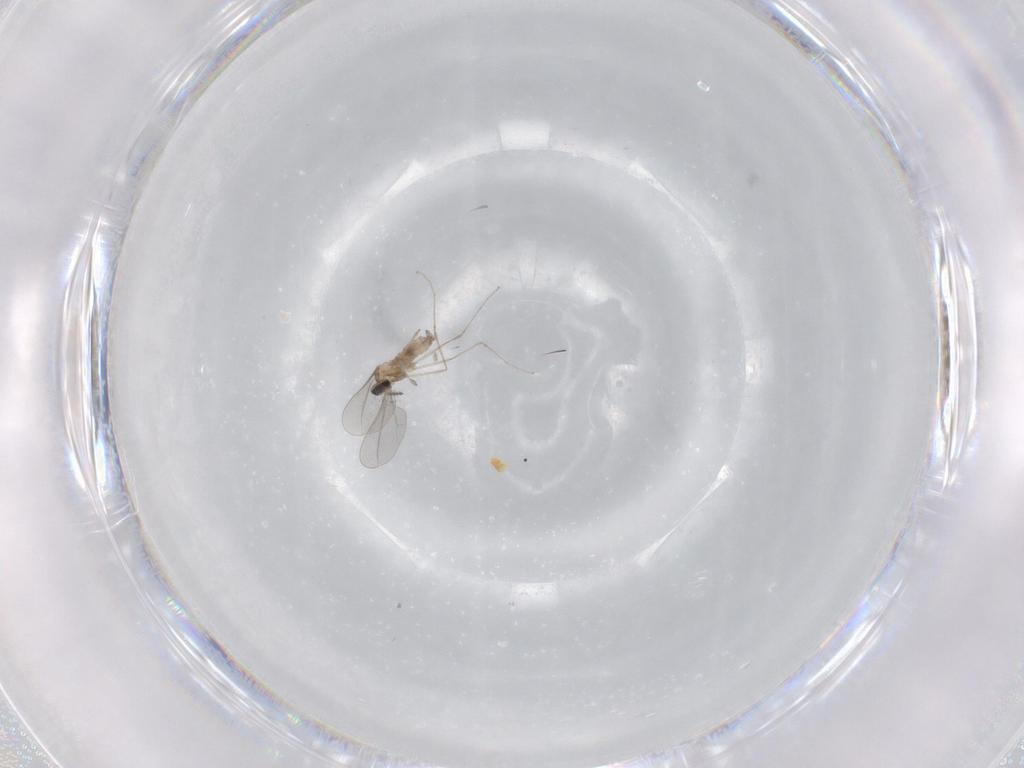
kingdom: Animalia
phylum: Arthropoda
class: Insecta
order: Diptera
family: Cecidomyiidae
